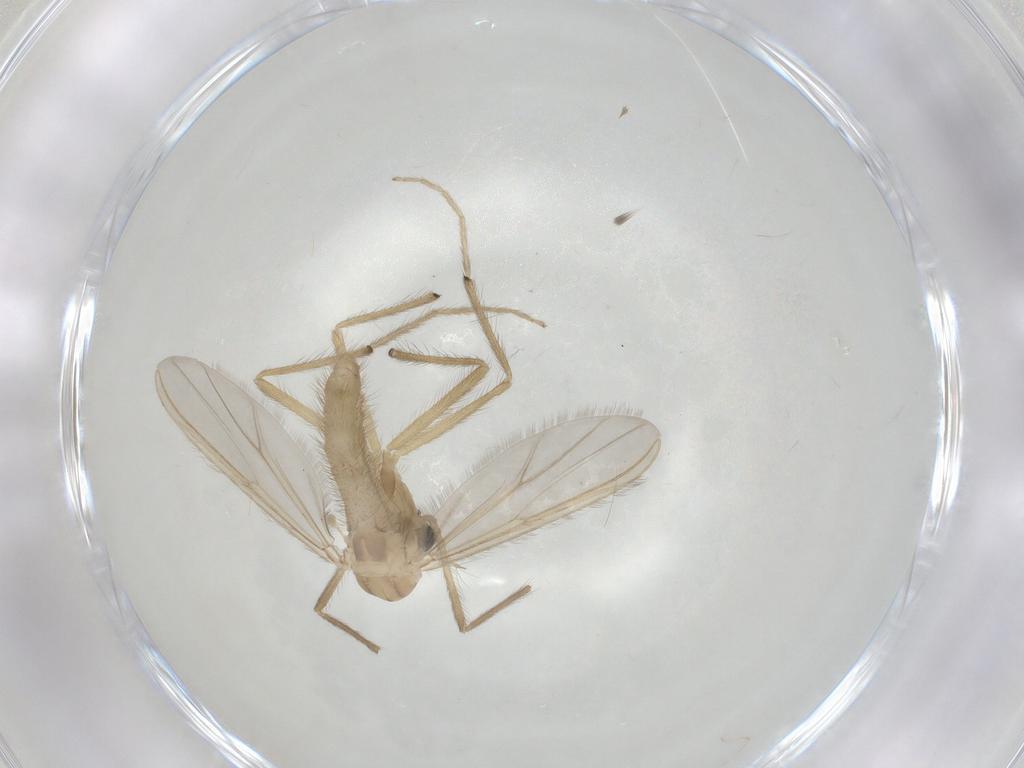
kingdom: Animalia
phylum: Arthropoda
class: Insecta
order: Diptera
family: Chironomidae
